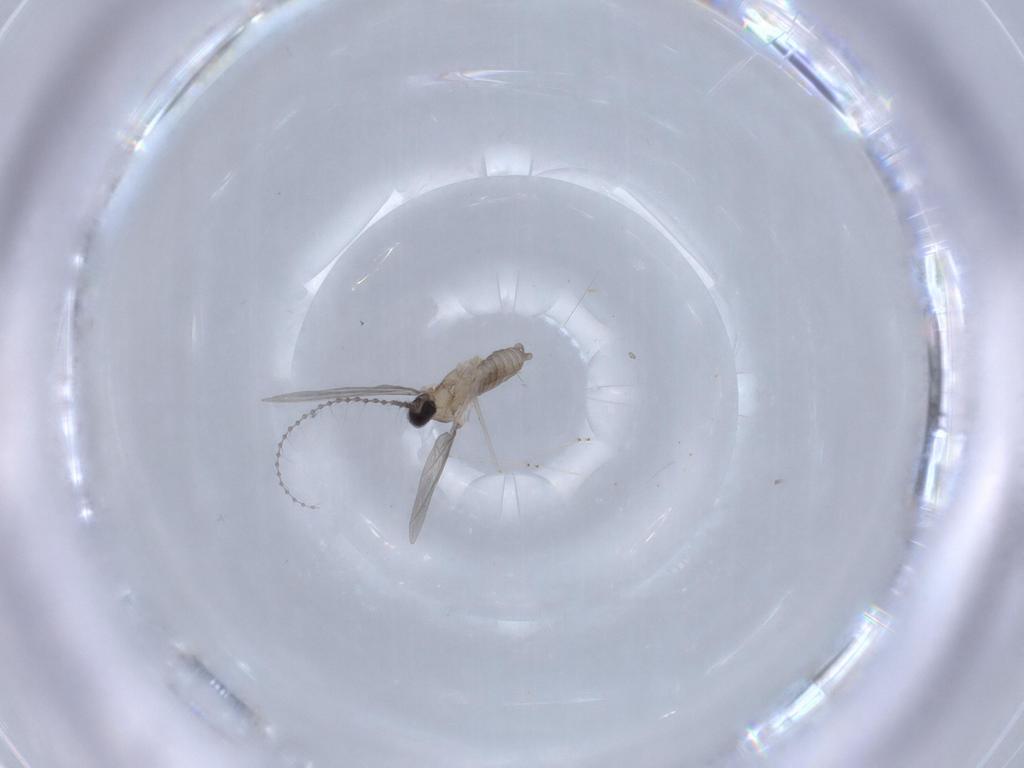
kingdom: Animalia
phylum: Arthropoda
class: Insecta
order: Diptera
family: Cecidomyiidae
